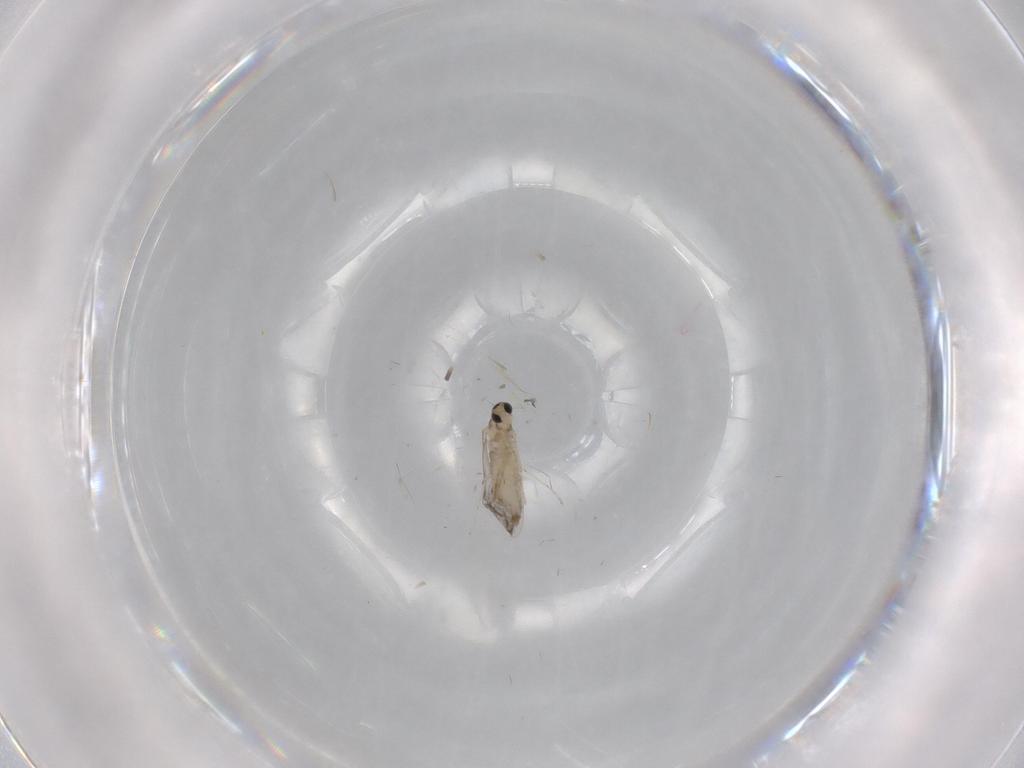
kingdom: Animalia
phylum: Arthropoda
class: Insecta
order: Diptera
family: Hybotidae
